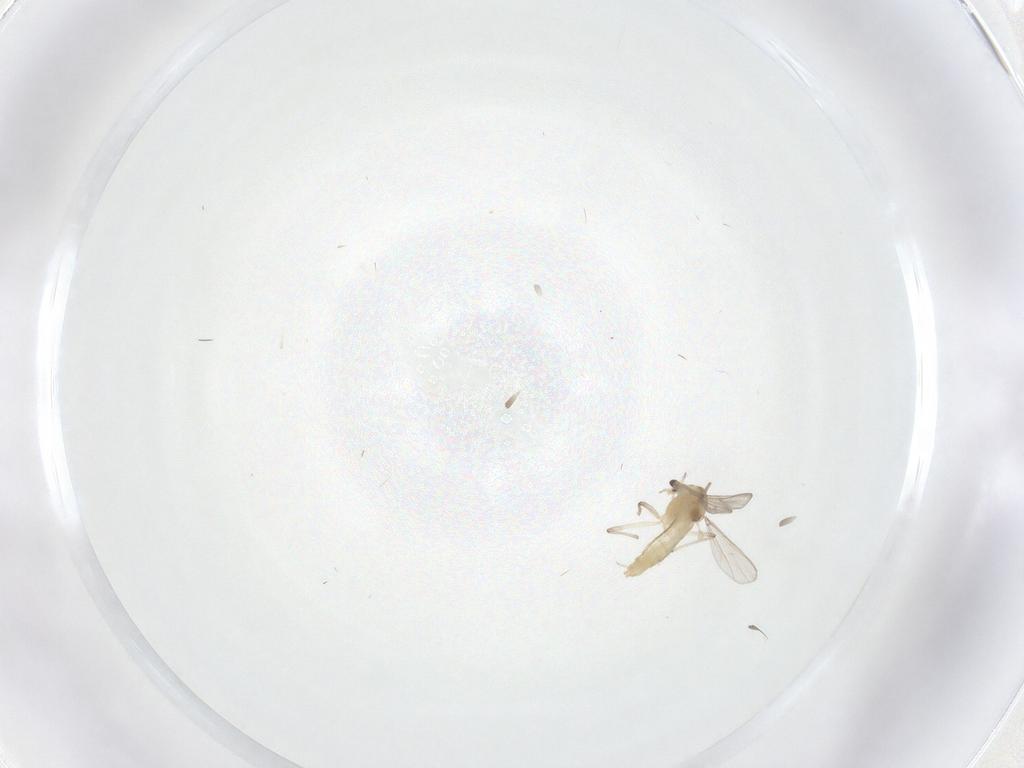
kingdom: Animalia
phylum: Arthropoda
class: Insecta
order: Diptera
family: Chironomidae
